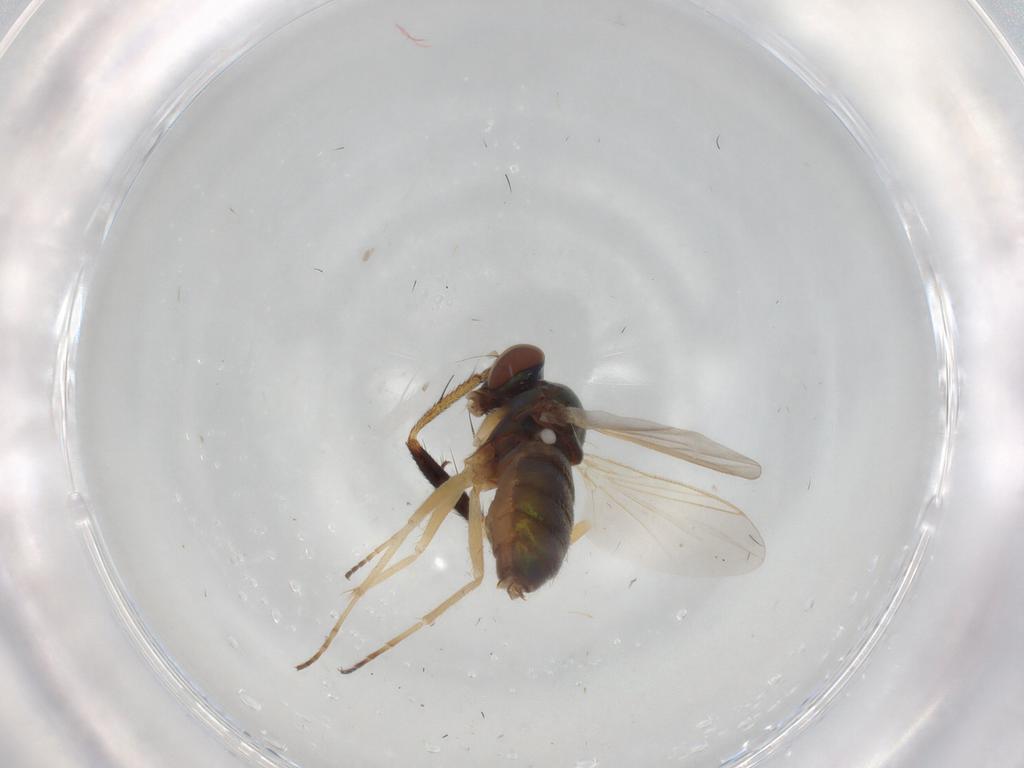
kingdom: Animalia
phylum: Arthropoda
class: Insecta
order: Diptera
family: Dolichopodidae
